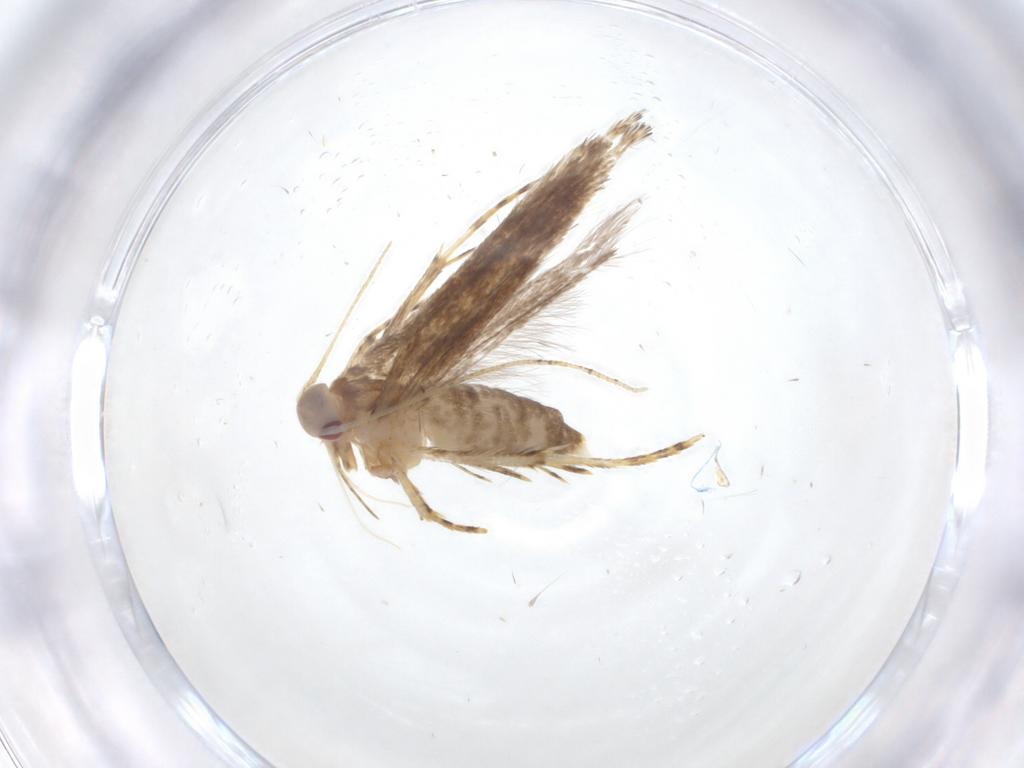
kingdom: Animalia
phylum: Arthropoda
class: Insecta
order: Lepidoptera
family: Cosmopterigidae
